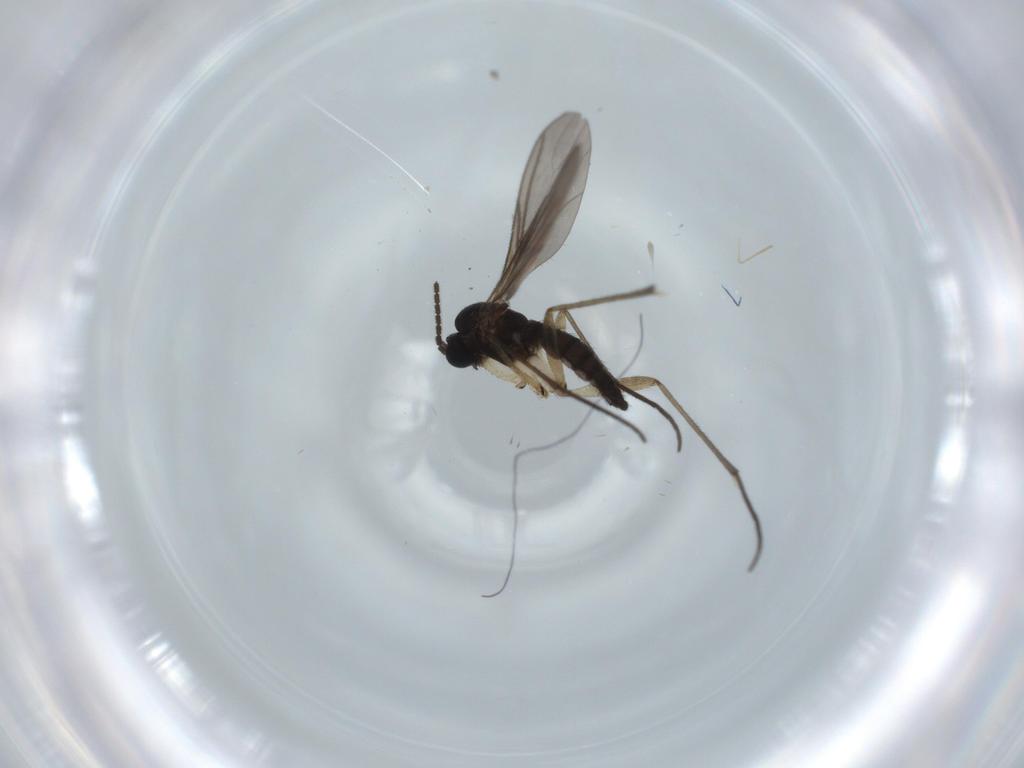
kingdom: Animalia
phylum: Arthropoda
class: Insecta
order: Diptera
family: Sciaridae
